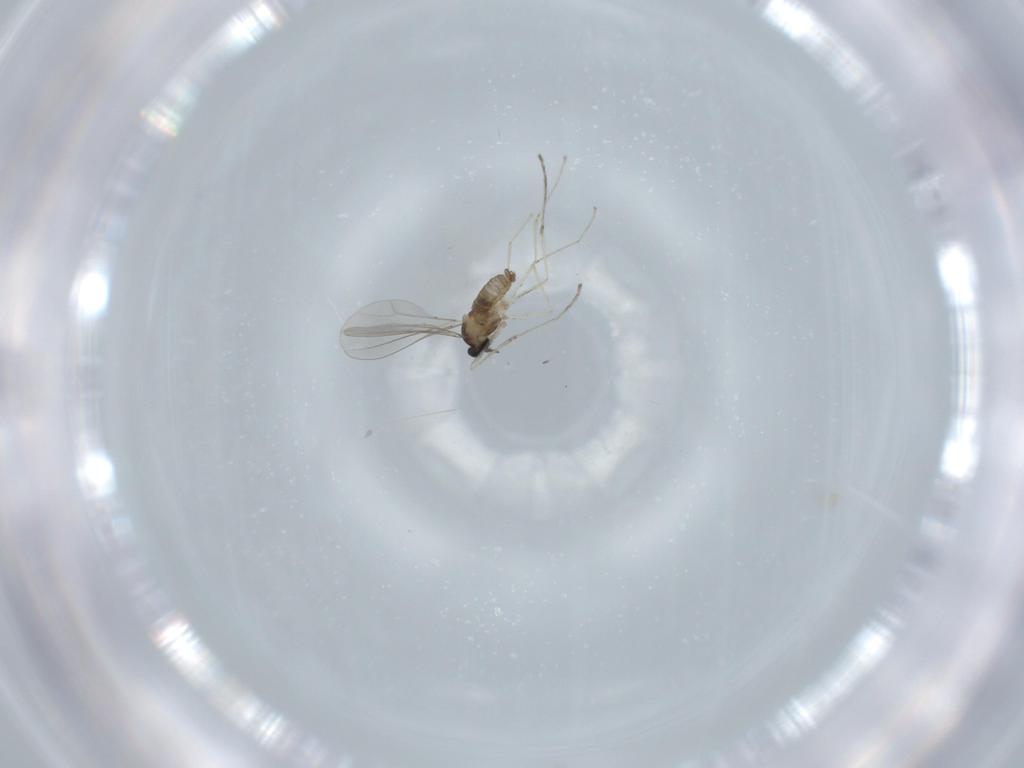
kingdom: Animalia
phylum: Arthropoda
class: Insecta
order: Diptera
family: Cecidomyiidae
